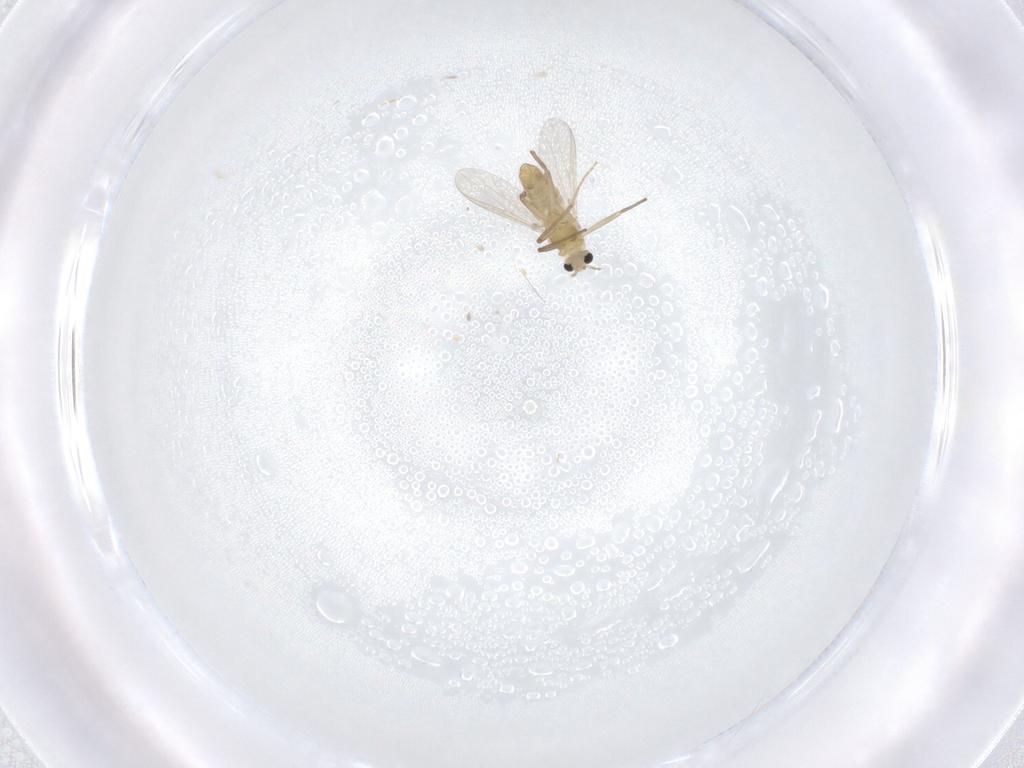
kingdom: Animalia
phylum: Arthropoda
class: Insecta
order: Diptera
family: Chironomidae
